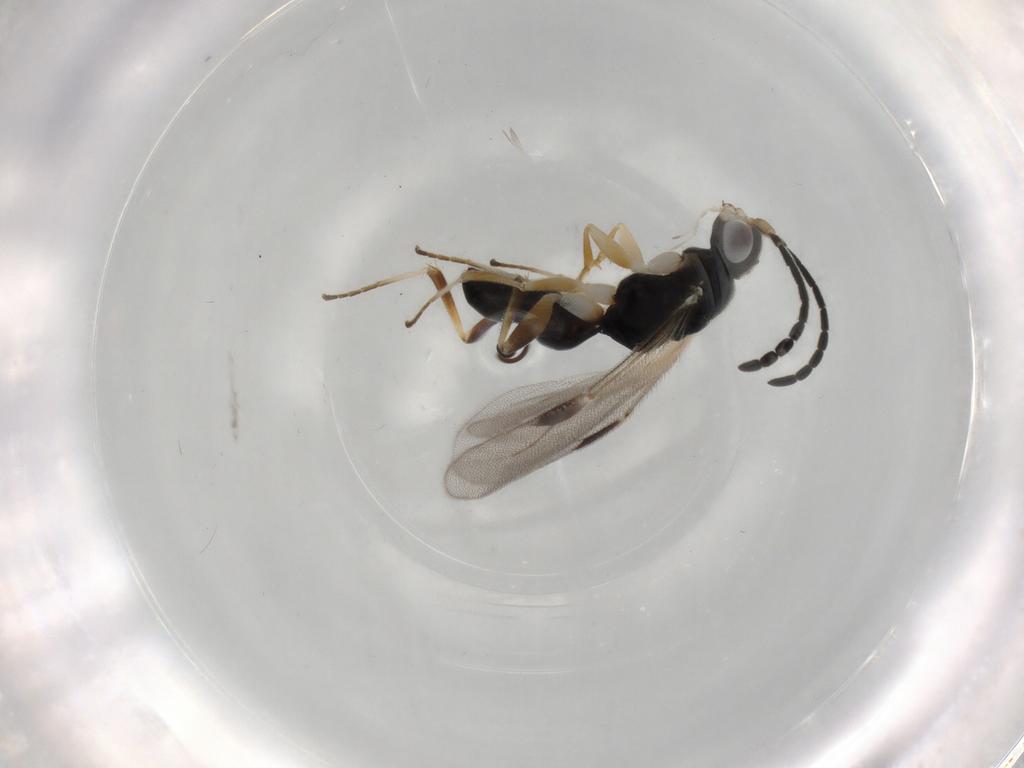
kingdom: Animalia
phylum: Arthropoda
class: Insecta
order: Hymenoptera
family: Dryinidae
